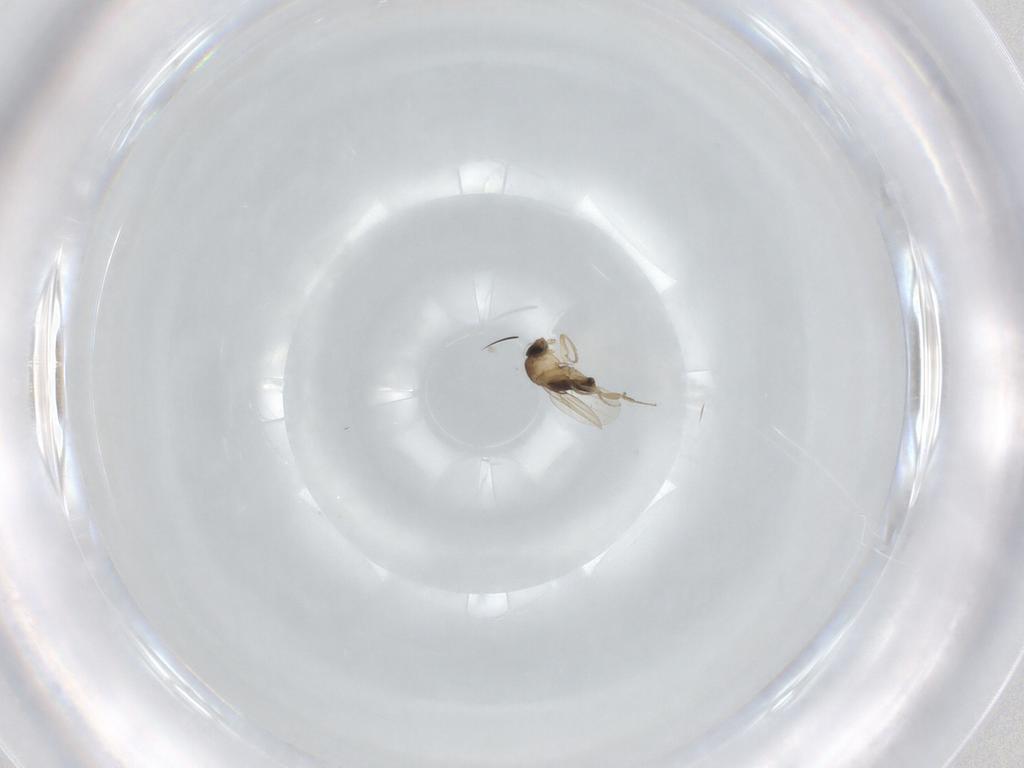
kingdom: Animalia
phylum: Arthropoda
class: Insecta
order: Diptera
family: Phoridae
